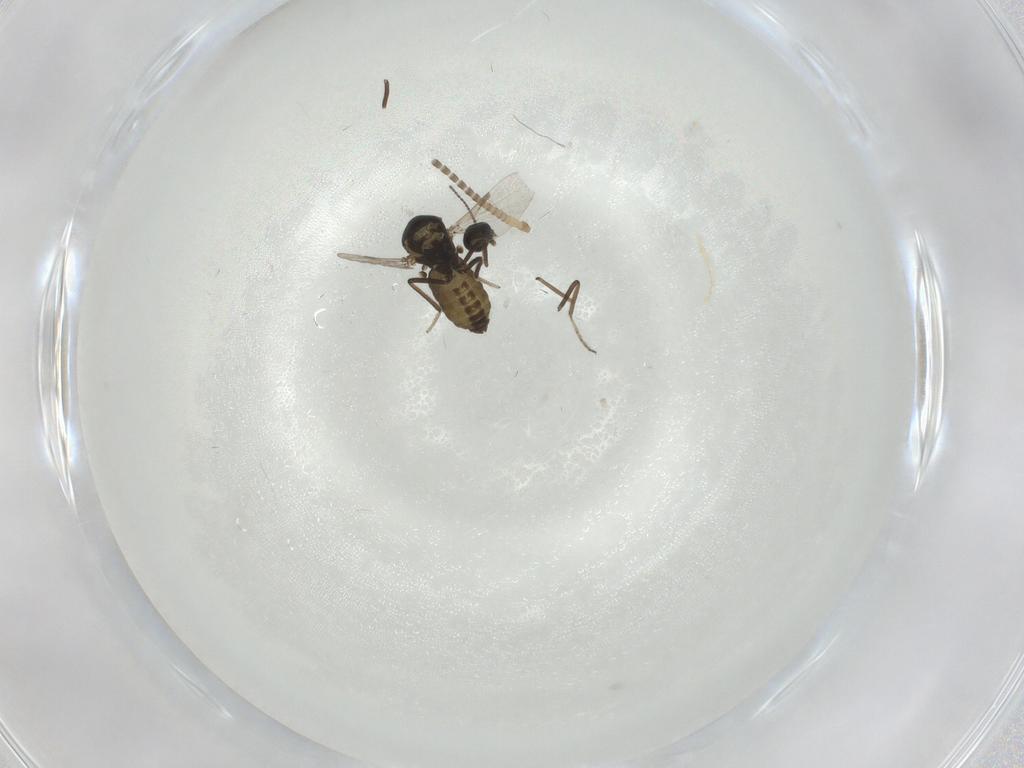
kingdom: Animalia
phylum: Arthropoda
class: Insecta
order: Diptera
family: Ceratopogonidae
